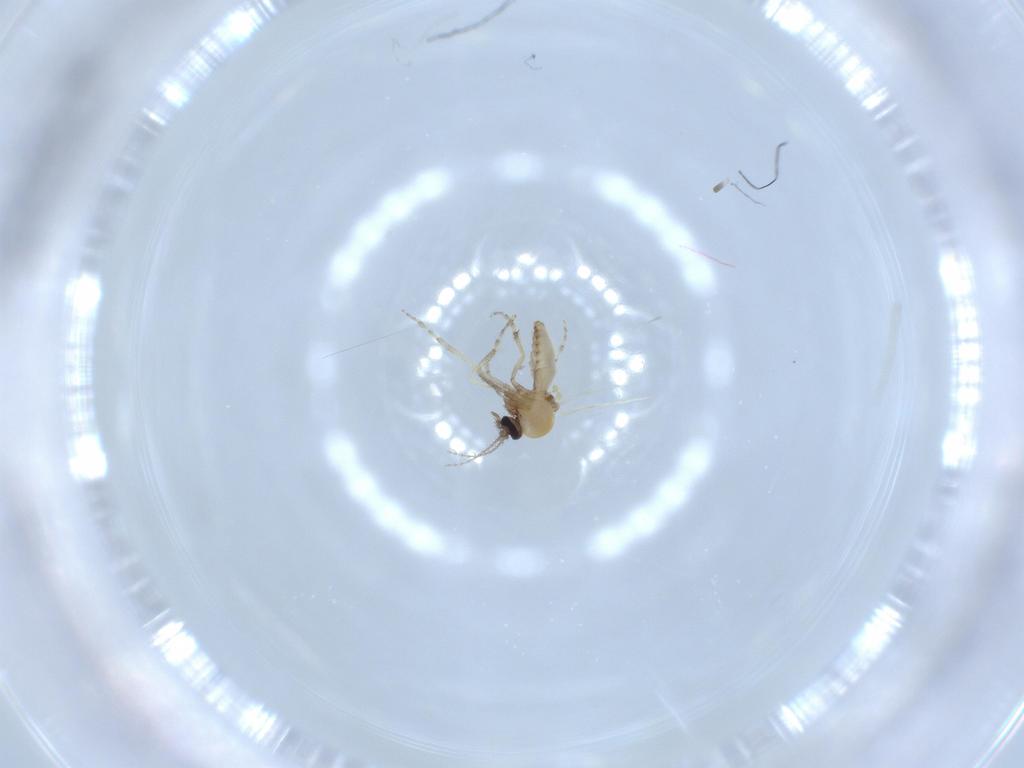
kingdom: Animalia
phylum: Arthropoda
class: Insecta
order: Diptera
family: Ceratopogonidae
